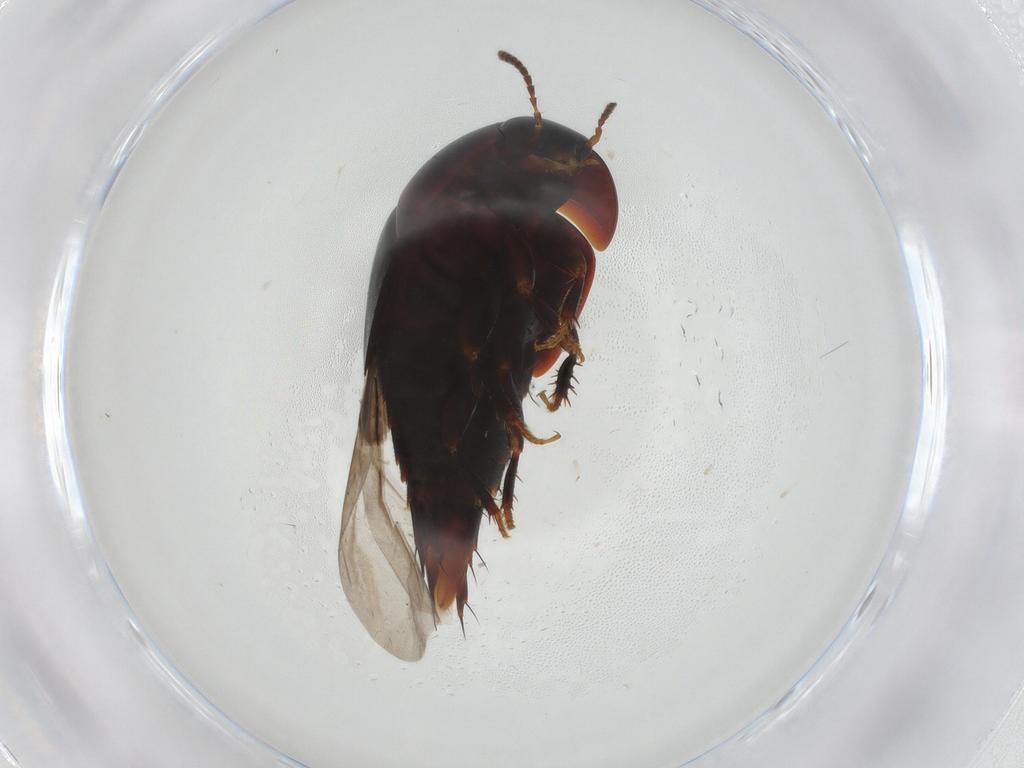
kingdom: Animalia
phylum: Arthropoda
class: Insecta
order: Coleoptera
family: Staphylinidae
